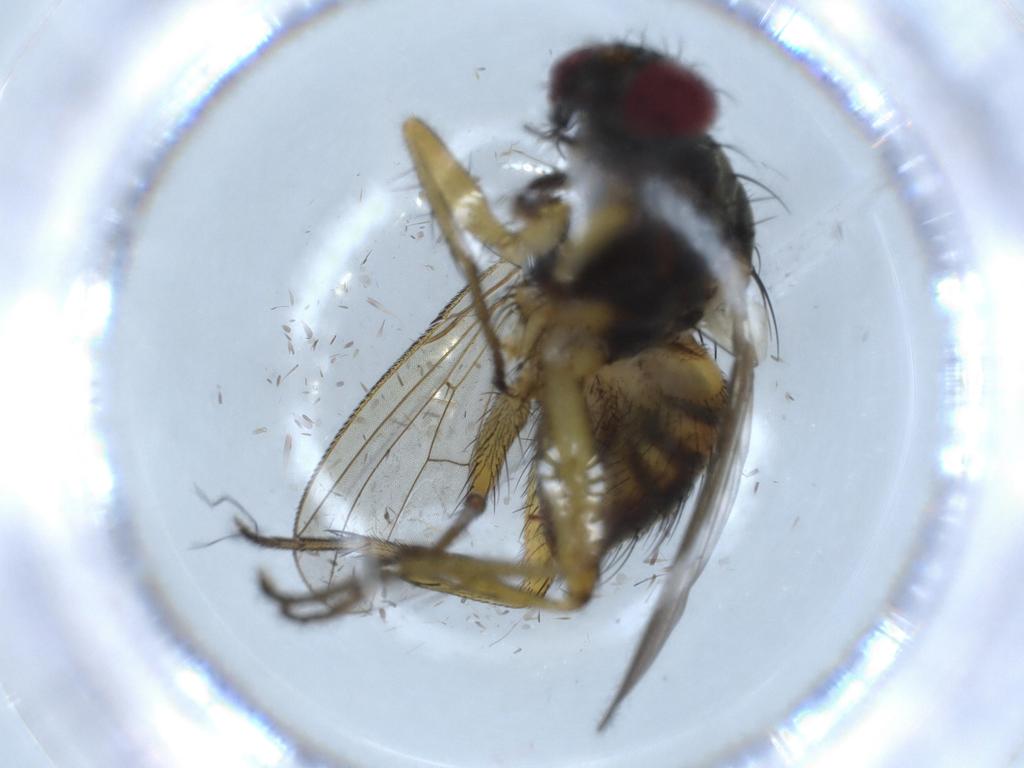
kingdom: Animalia
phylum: Arthropoda
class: Insecta
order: Diptera
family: Muscidae
